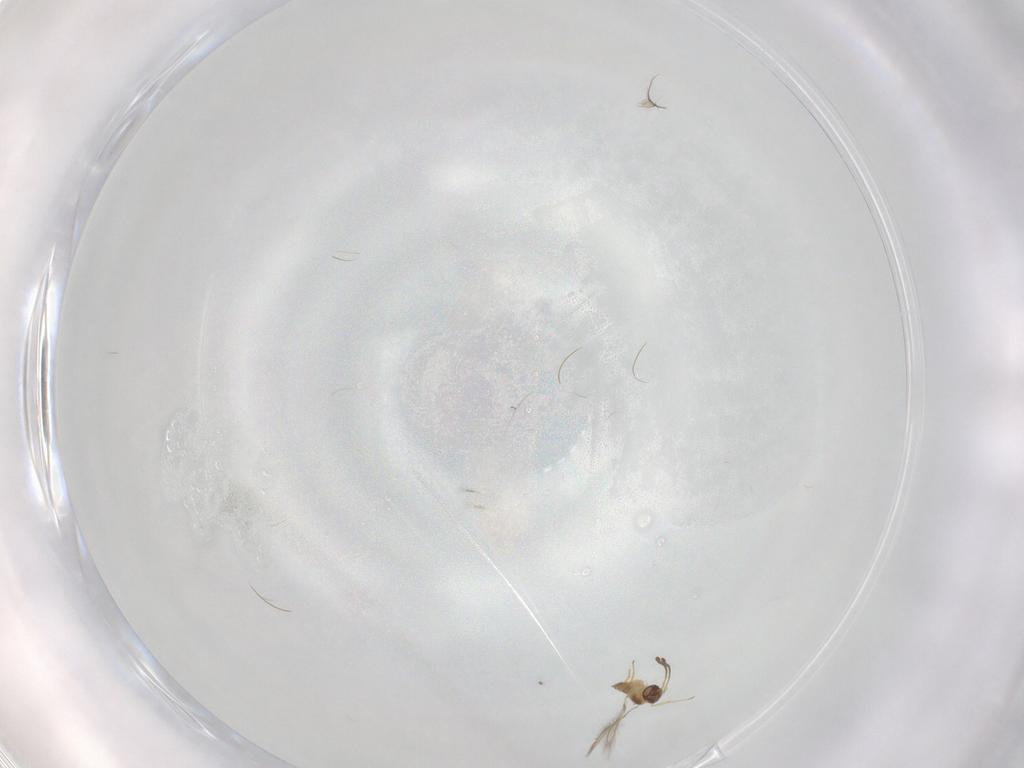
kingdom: Animalia
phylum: Arthropoda
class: Insecta
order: Hymenoptera
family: Mymaridae
